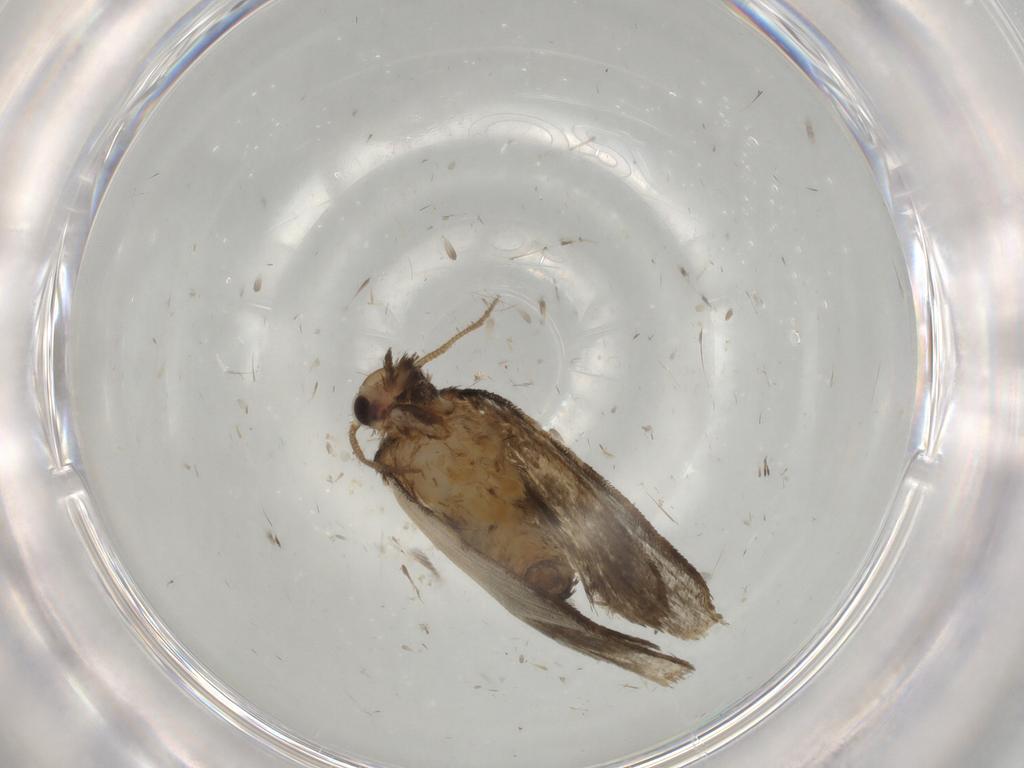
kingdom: Animalia
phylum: Arthropoda
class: Insecta
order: Lepidoptera
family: Psychidae
